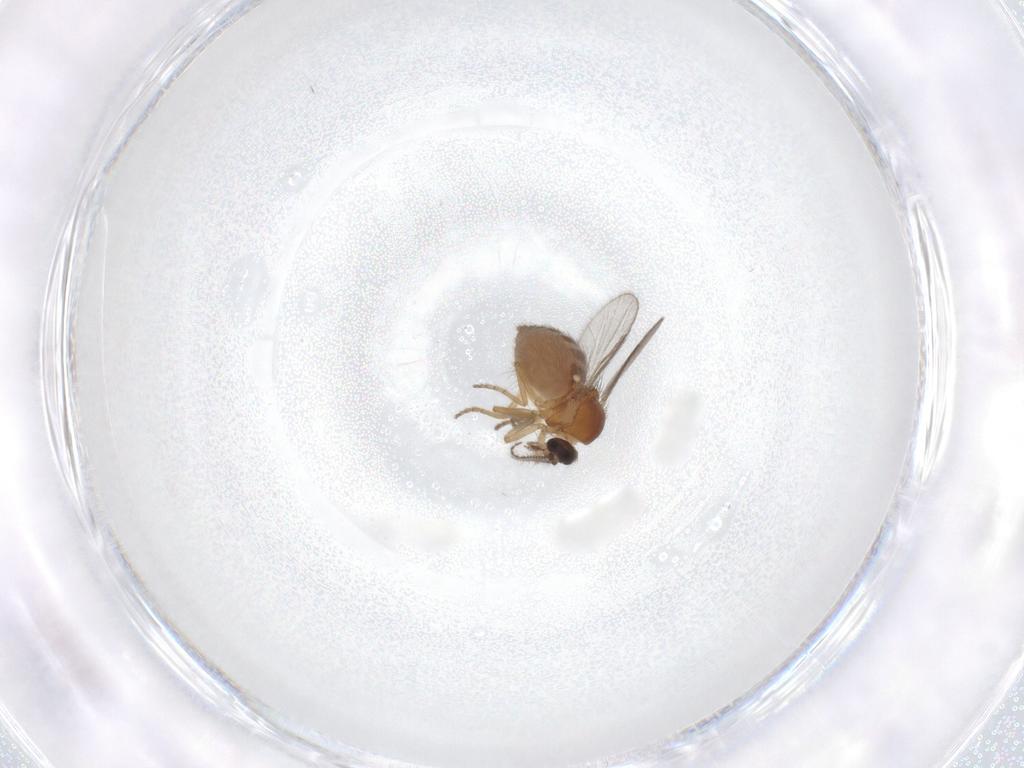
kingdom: Animalia
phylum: Arthropoda
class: Insecta
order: Diptera
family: Ceratopogonidae
